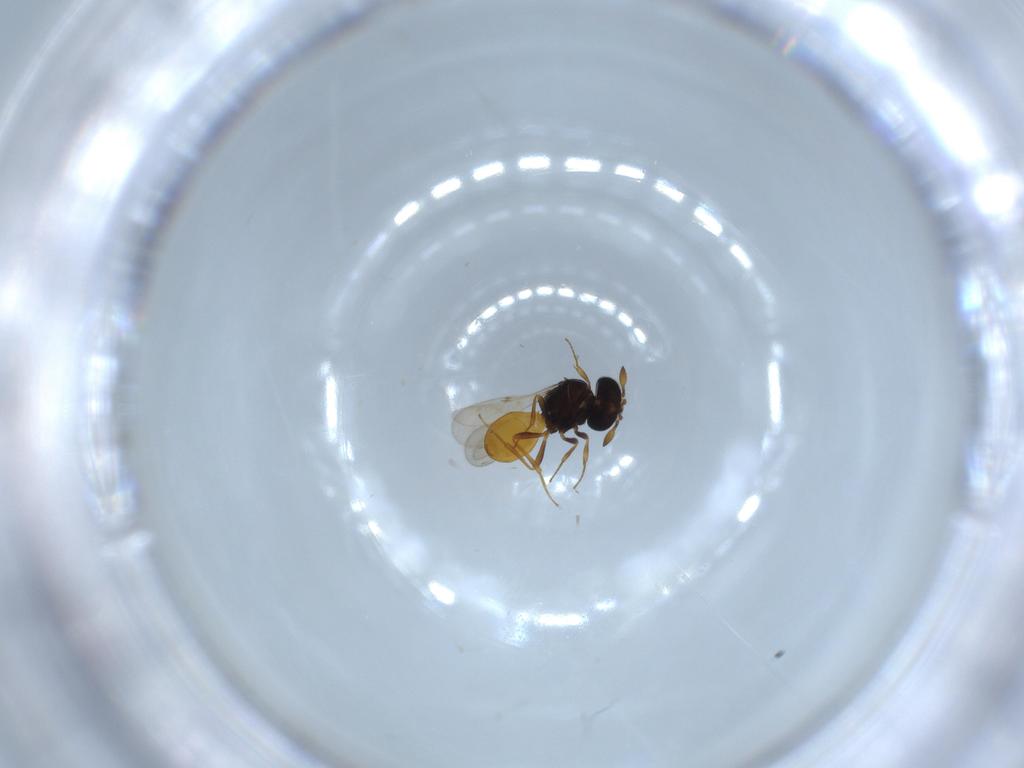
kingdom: Animalia
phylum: Arthropoda
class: Insecta
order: Hymenoptera
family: Scelionidae
